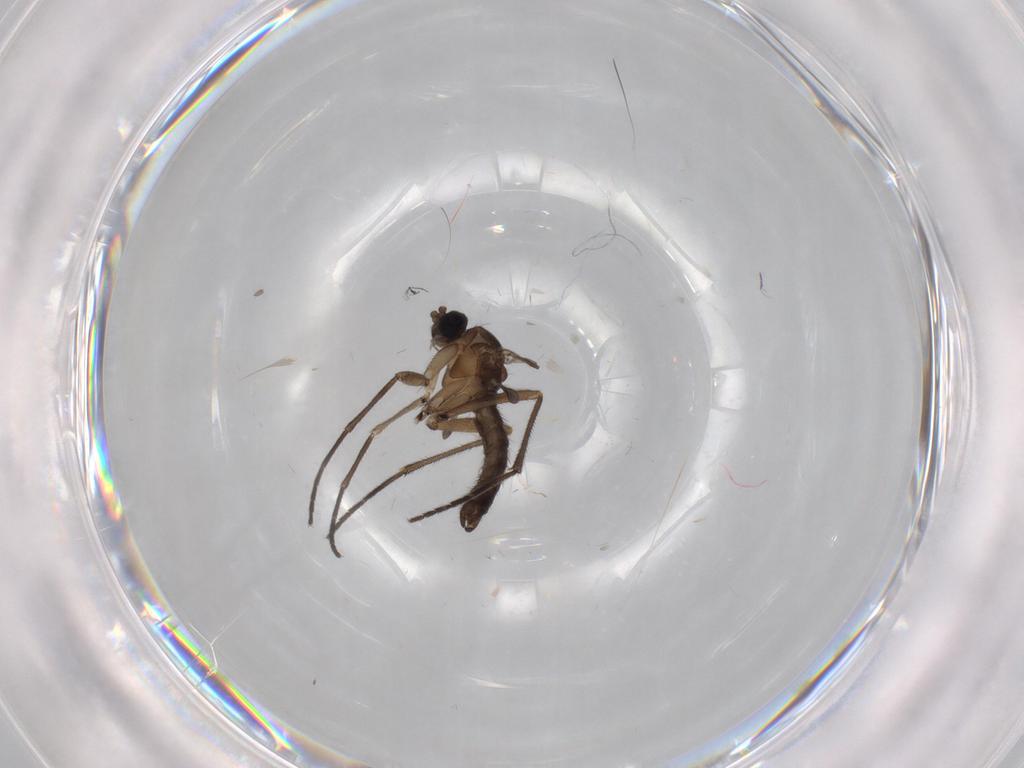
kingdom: Animalia
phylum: Arthropoda
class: Insecta
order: Diptera
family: Sciaridae
